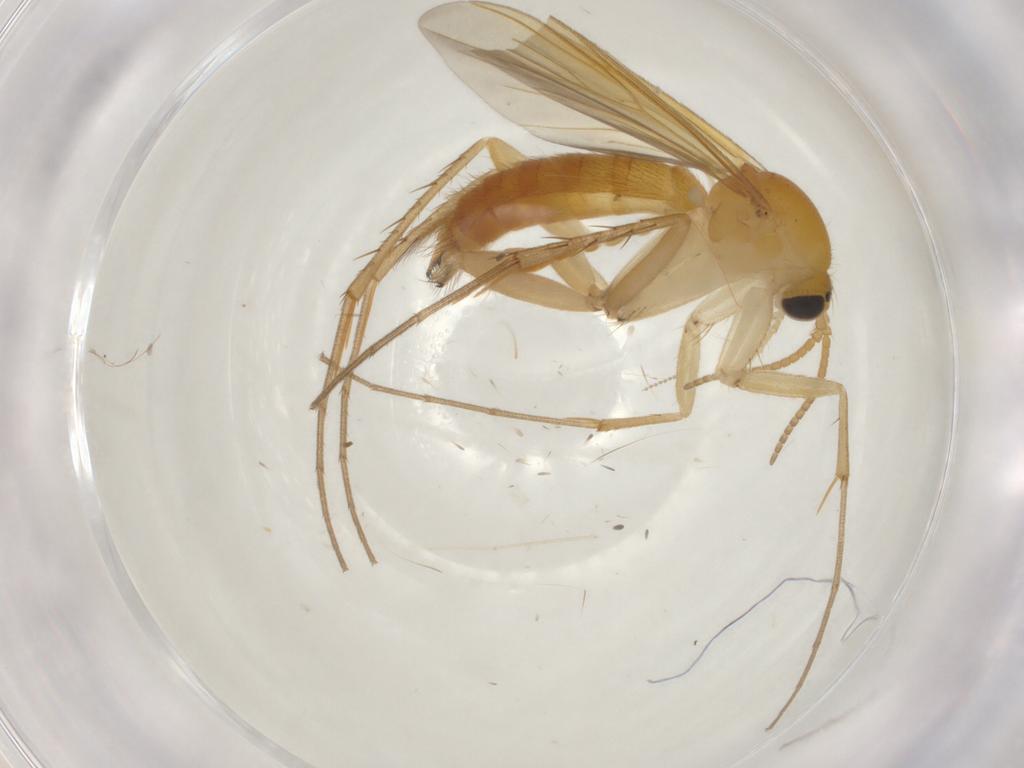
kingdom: Animalia
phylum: Arthropoda
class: Insecta
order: Diptera
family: Mycetophilidae
